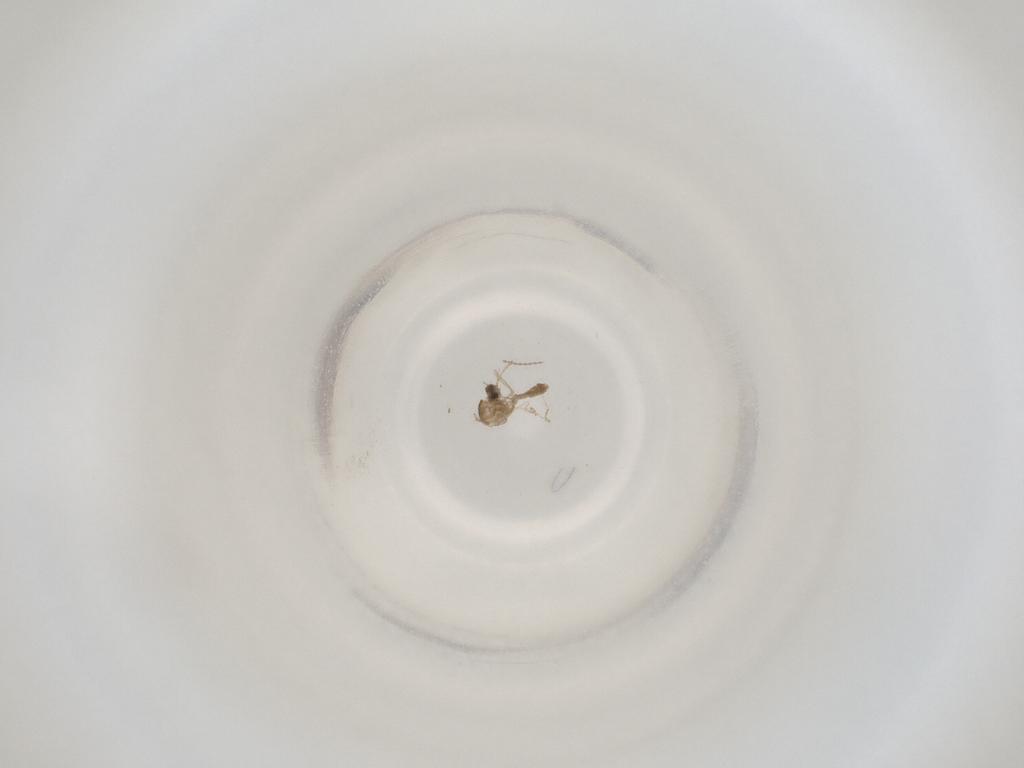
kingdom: Animalia
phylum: Arthropoda
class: Insecta
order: Diptera
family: Cecidomyiidae
